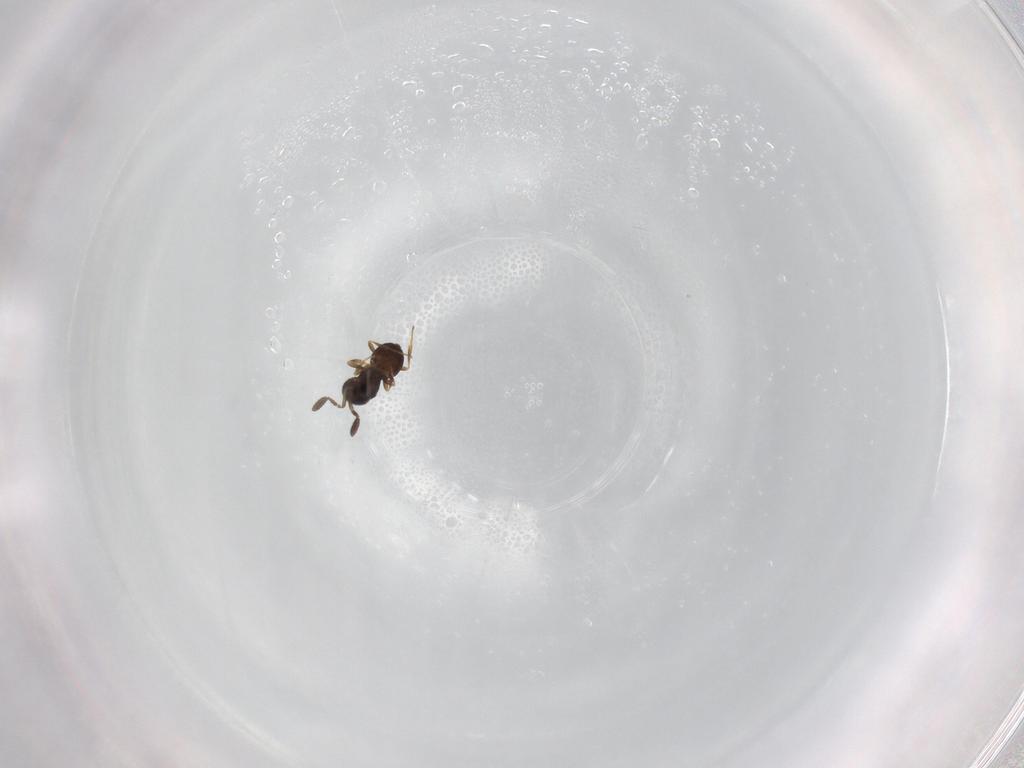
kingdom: Animalia
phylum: Arthropoda
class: Insecta
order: Hymenoptera
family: Scelionidae
